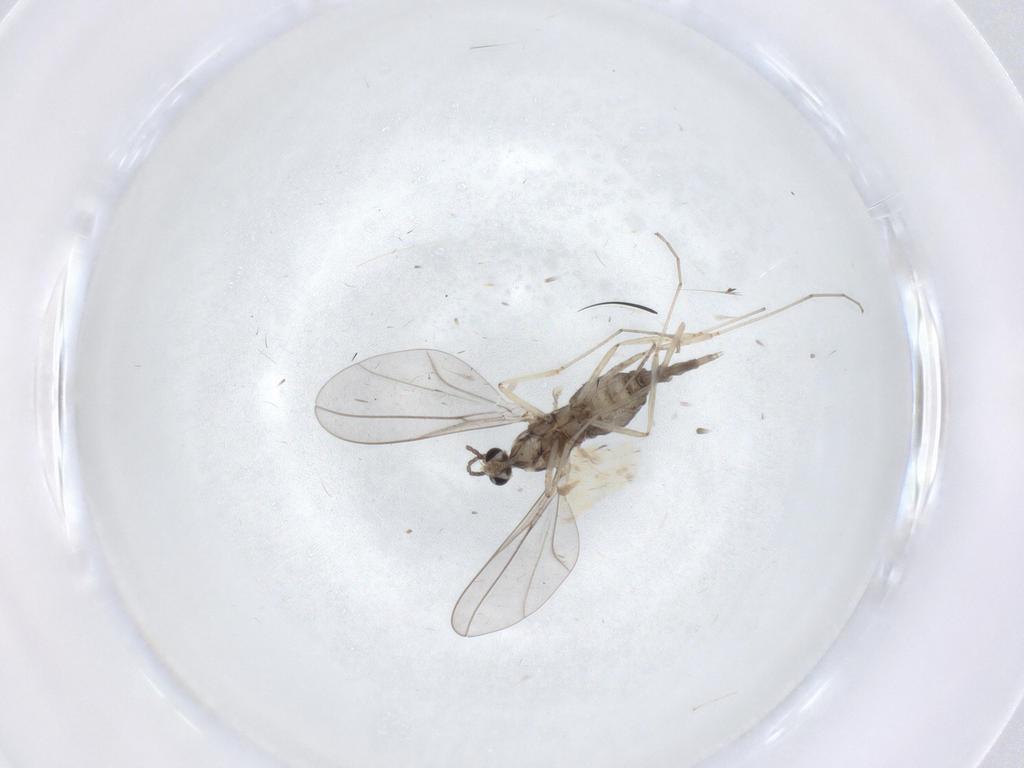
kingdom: Animalia
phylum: Arthropoda
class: Insecta
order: Diptera
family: Cecidomyiidae
